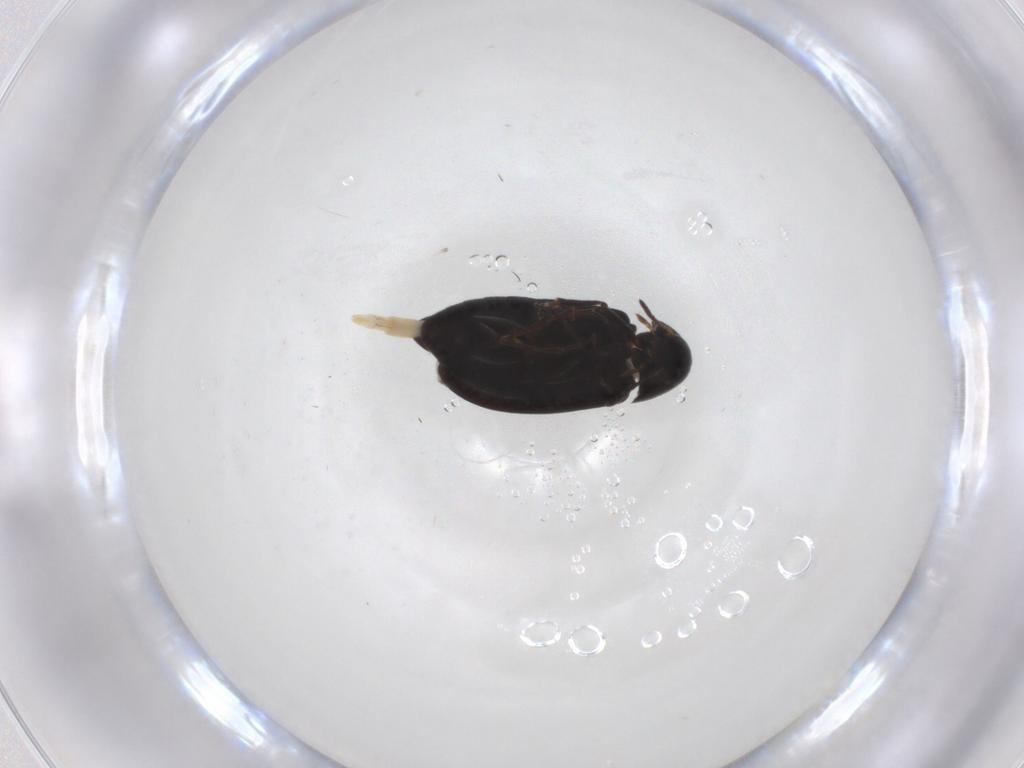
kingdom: Animalia
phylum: Arthropoda
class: Insecta
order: Coleoptera
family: Scraptiidae
